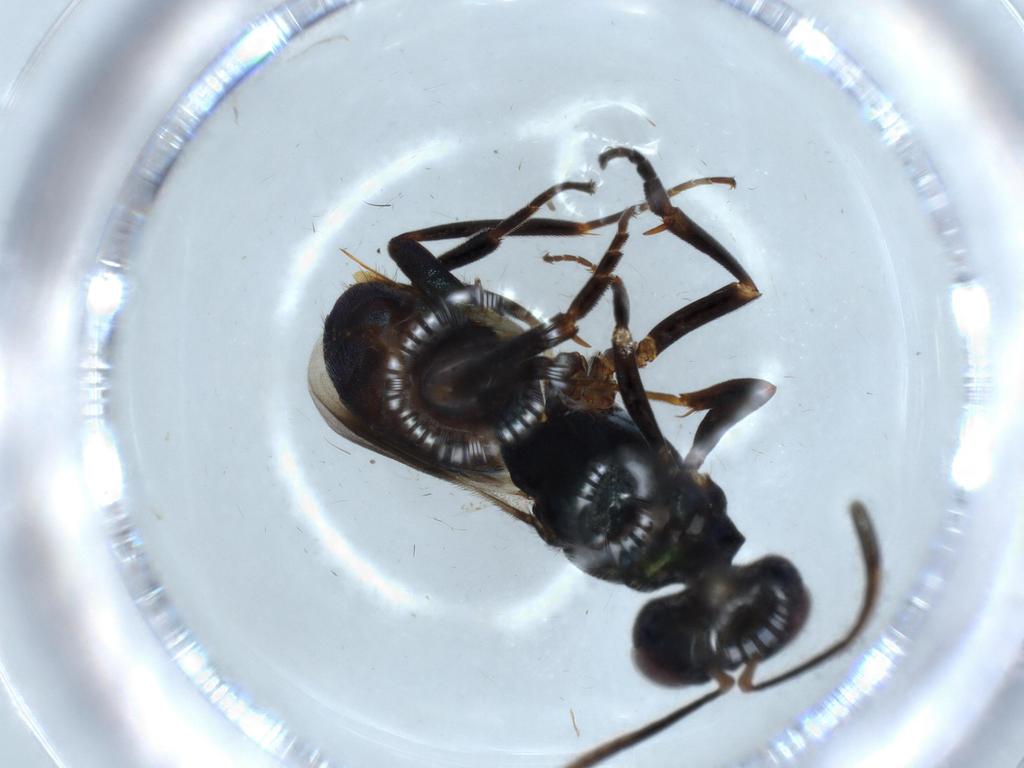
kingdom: Animalia
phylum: Arthropoda
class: Insecta
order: Hymenoptera
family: Eupelmidae
